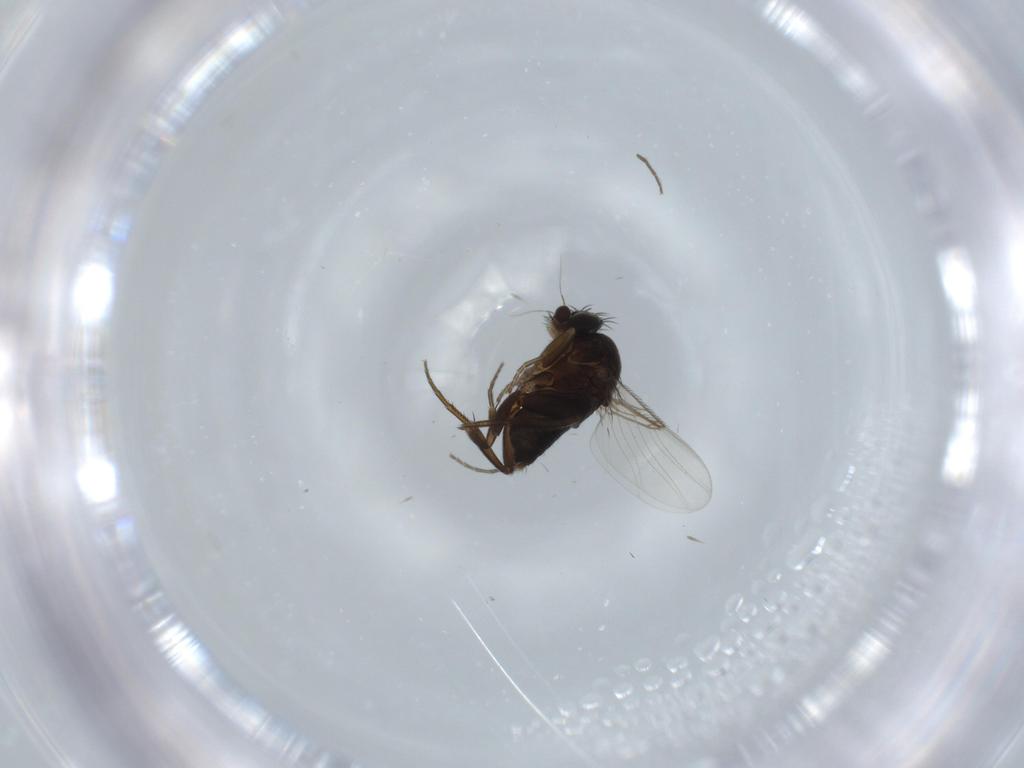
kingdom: Animalia
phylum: Arthropoda
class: Insecta
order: Diptera
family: Phoridae
